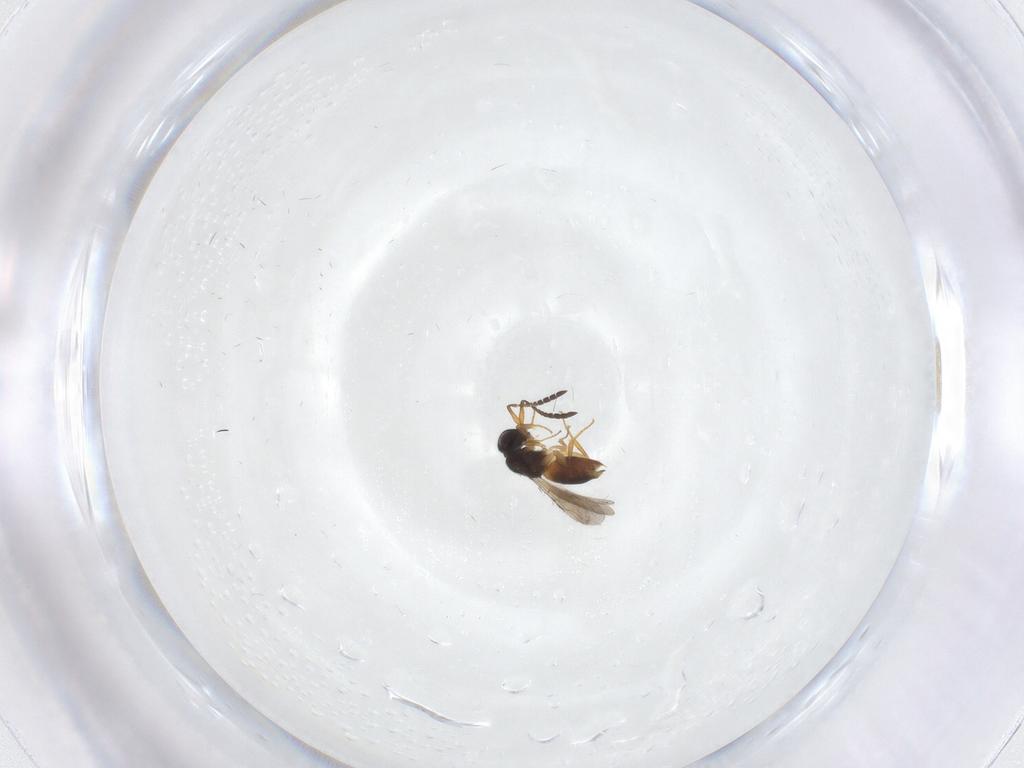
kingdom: Animalia
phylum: Arthropoda
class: Insecta
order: Hymenoptera
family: Ceraphronidae
